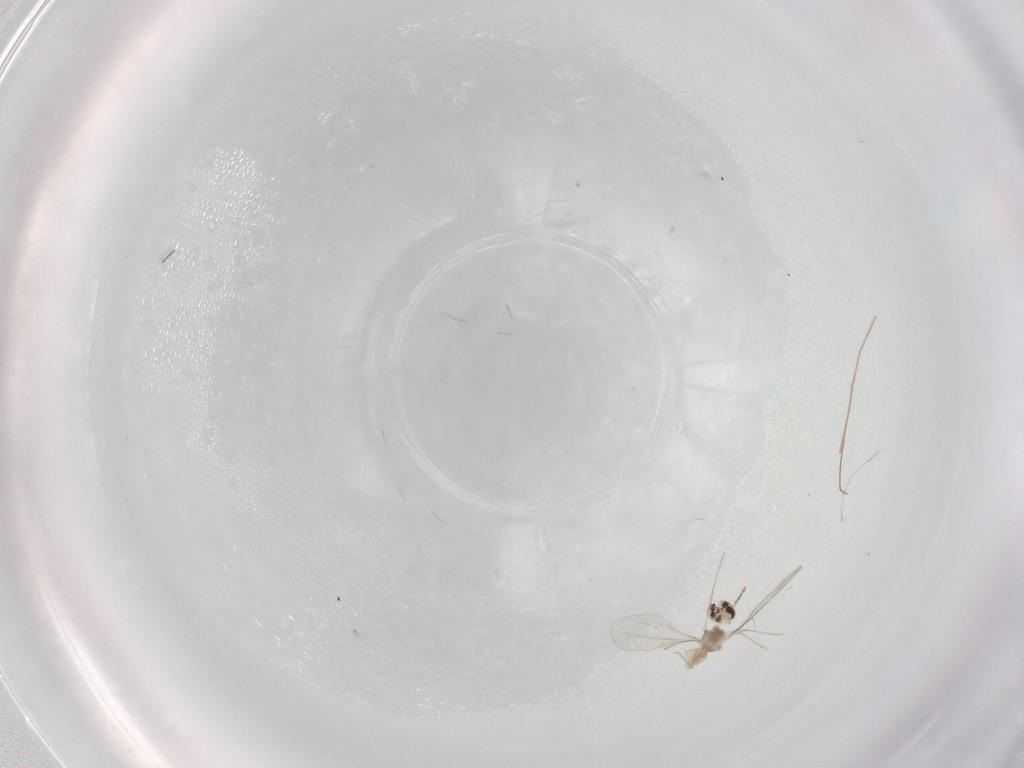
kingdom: Animalia
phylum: Arthropoda
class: Insecta
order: Diptera
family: Chironomidae
